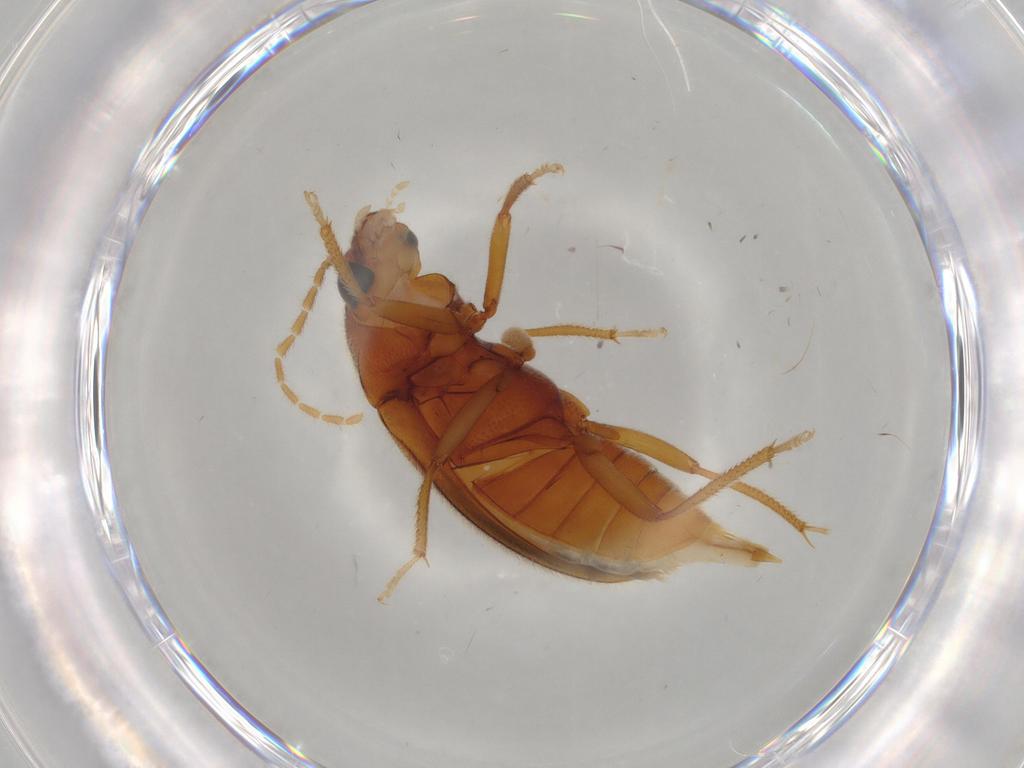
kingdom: Animalia
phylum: Arthropoda
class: Insecta
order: Coleoptera
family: Ptilodactylidae
